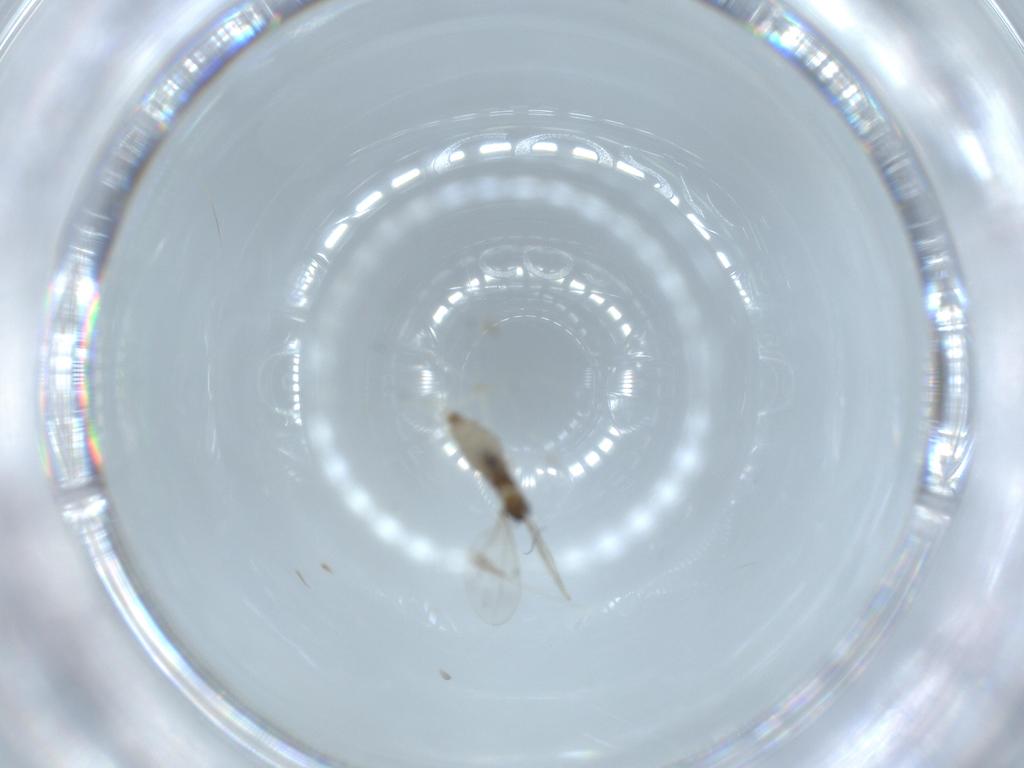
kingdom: Animalia
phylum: Arthropoda
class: Insecta
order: Diptera
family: Cecidomyiidae
